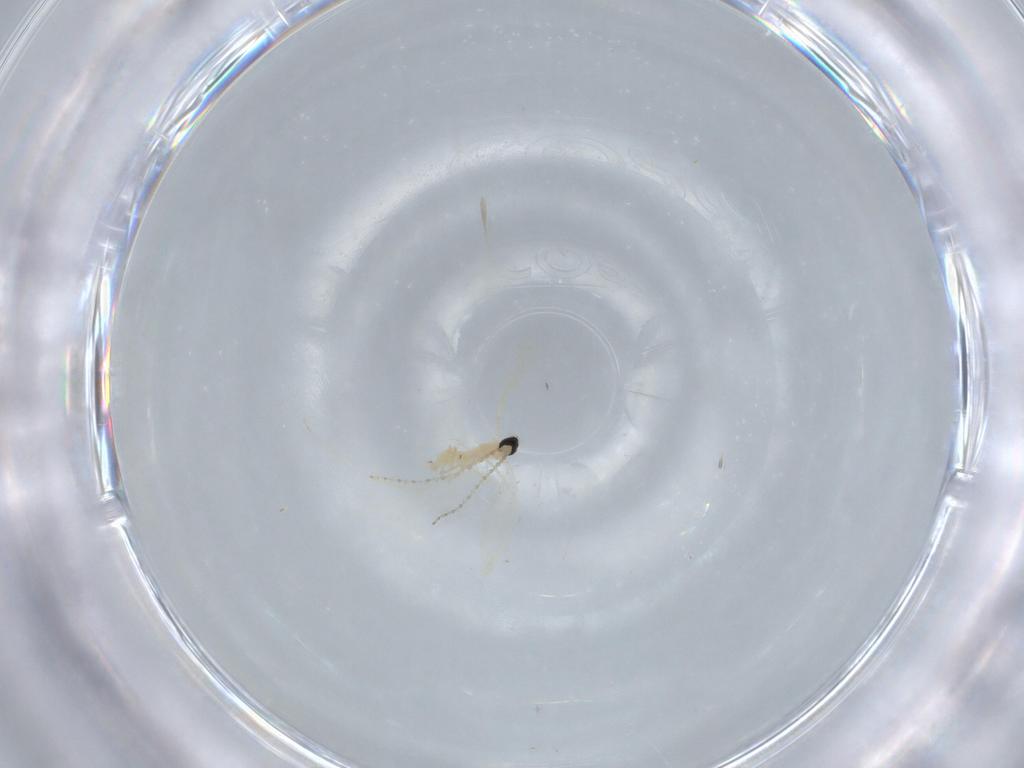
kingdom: Animalia
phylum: Arthropoda
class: Insecta
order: Diptera
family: Cecidomyiidae
